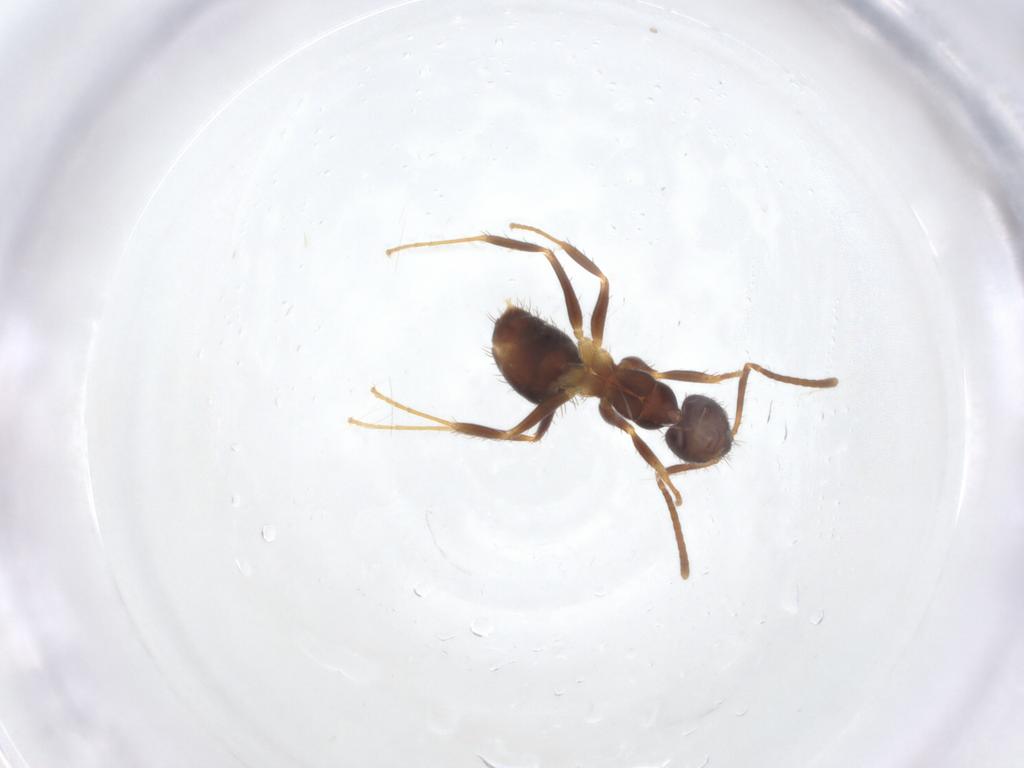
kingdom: Animalia
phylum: Arthropoda
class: Insecta
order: Hymenoptera
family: Formicidae
